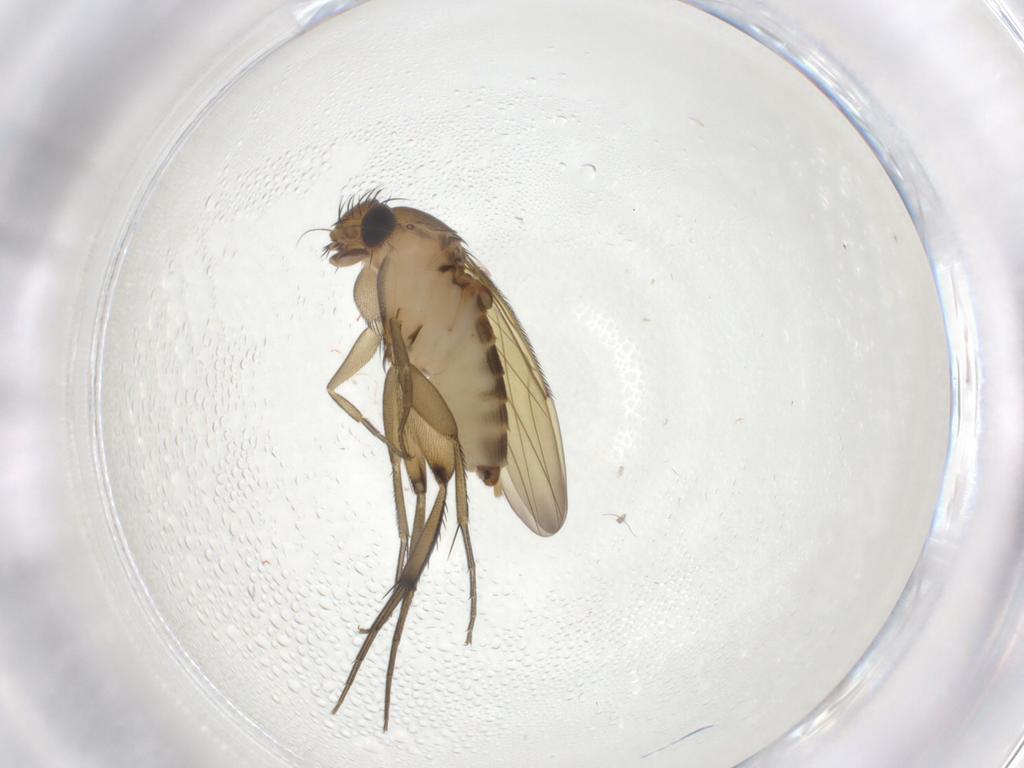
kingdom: Animalia
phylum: Arthropoda
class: Insecta
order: Diptera
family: Phoridae
